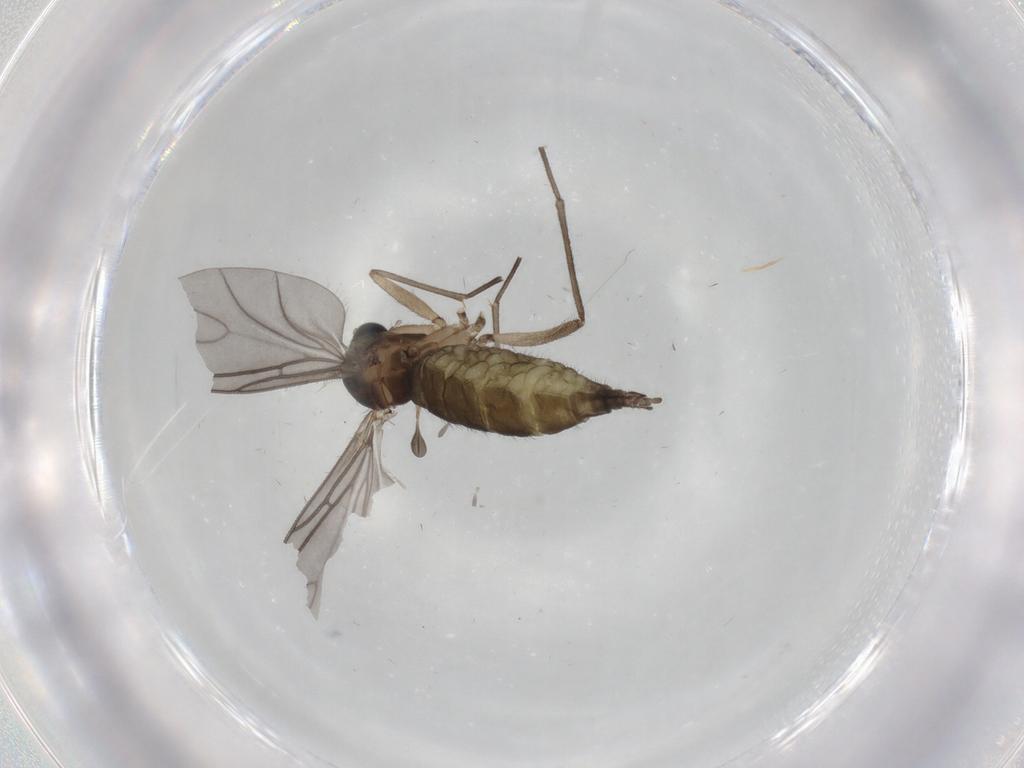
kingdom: Animalia
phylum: Arthropoda
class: Insecta
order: Diptera
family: Sciaridae
